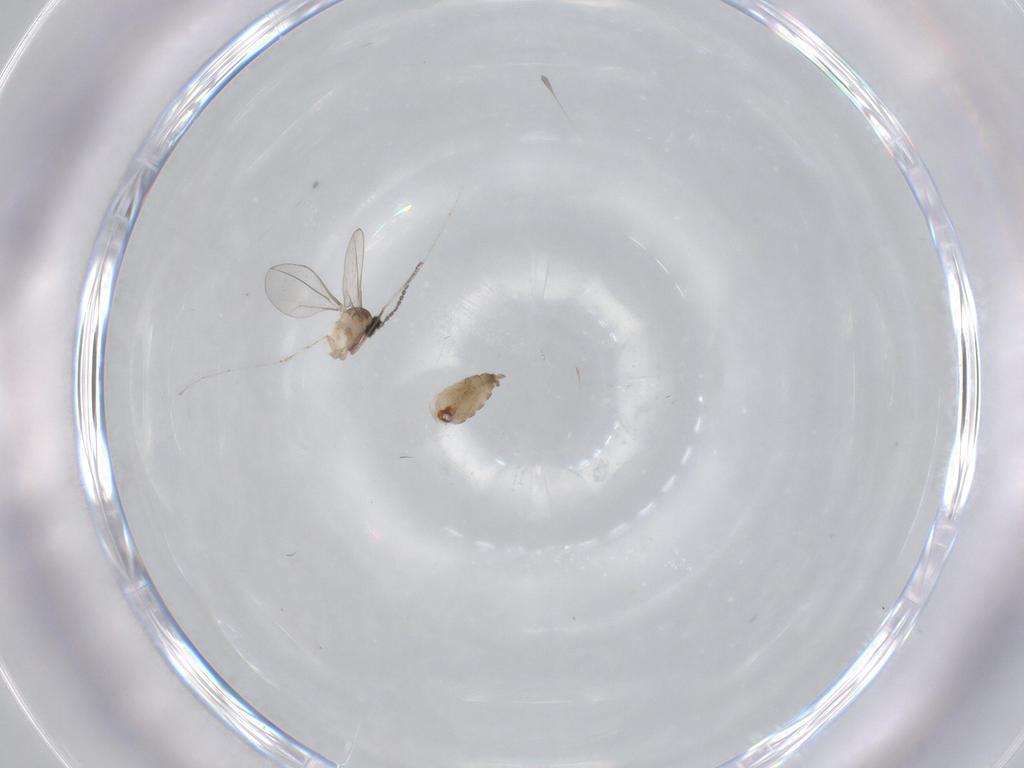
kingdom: Animalia
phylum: Arthropoda
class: Insecta
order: Diptera
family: Cecidomyiidae
